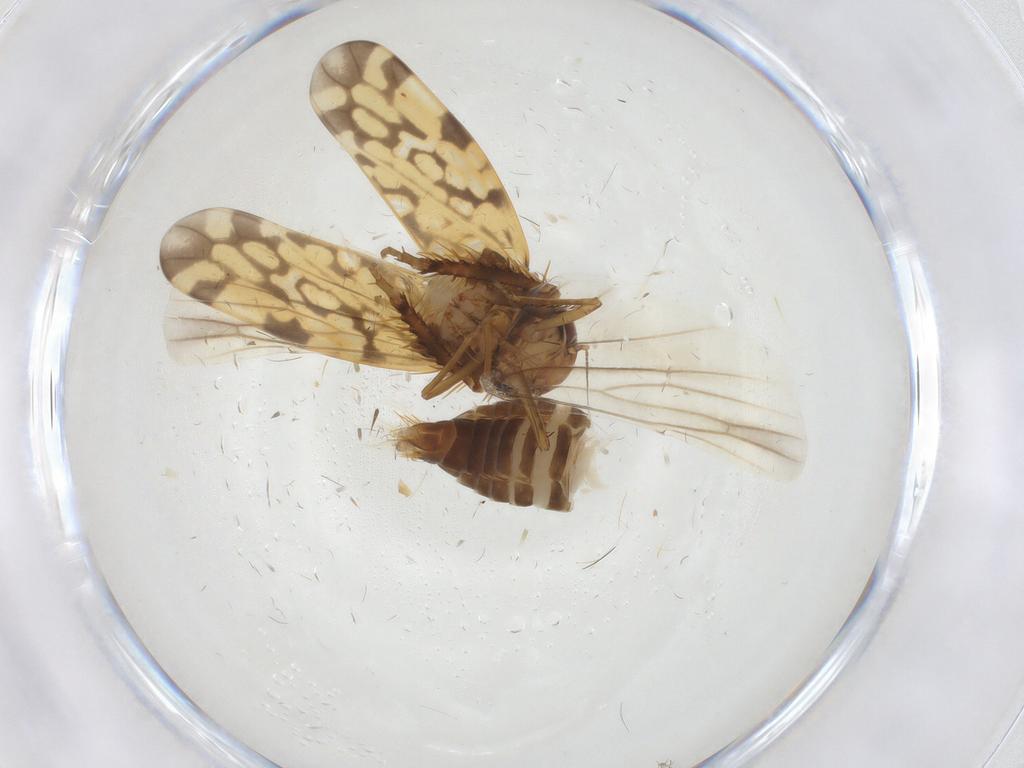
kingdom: Animalia
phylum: Arthropoda
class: Insecta
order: Hemiptera
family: Cicadellidae
